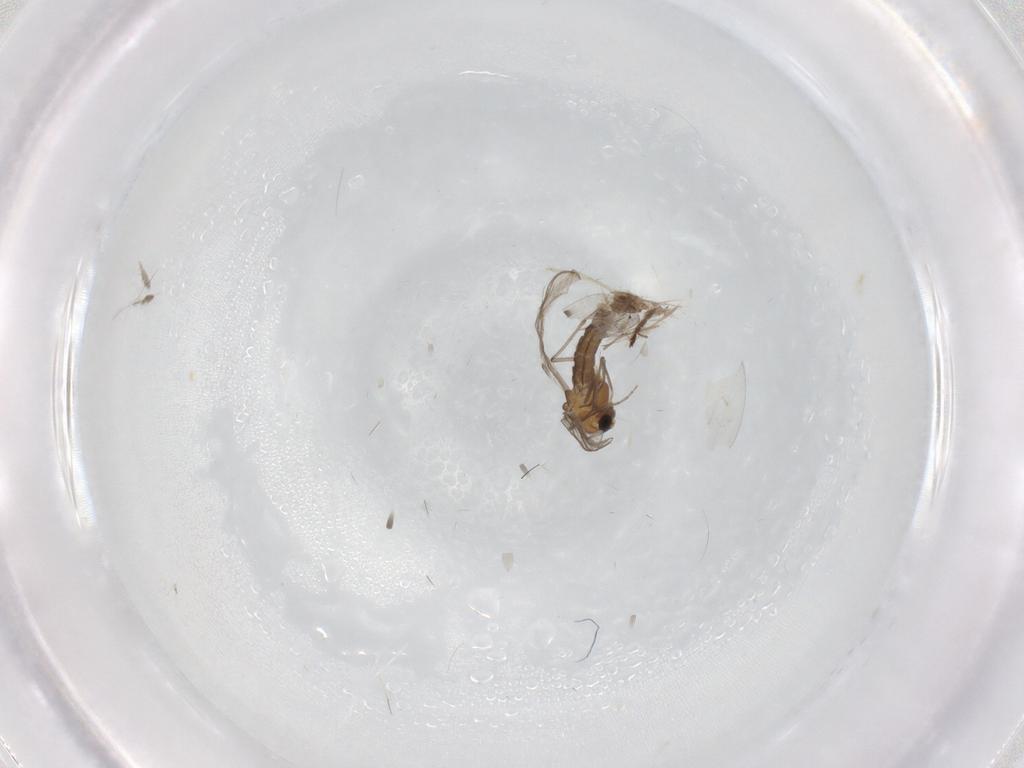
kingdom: Animalia
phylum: Arthropoda
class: Insecta
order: Diptera
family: Chironomidae
